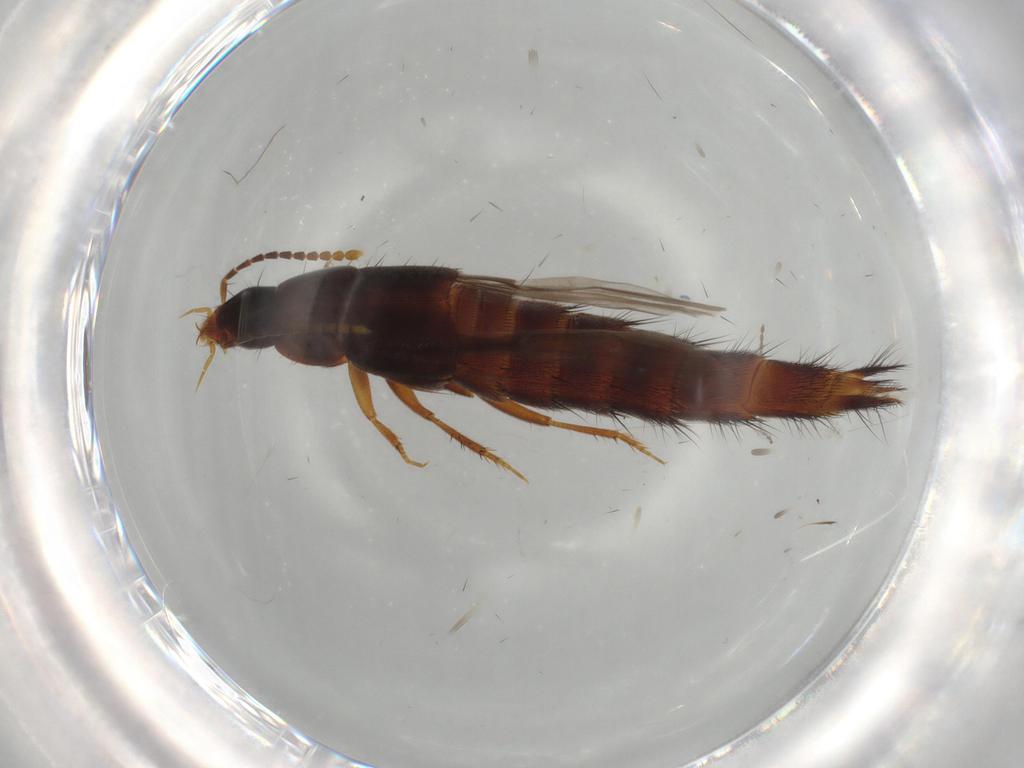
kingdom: Animalia
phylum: Arthropoda
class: Insecta
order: Coleoptera
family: Staphylinidae
